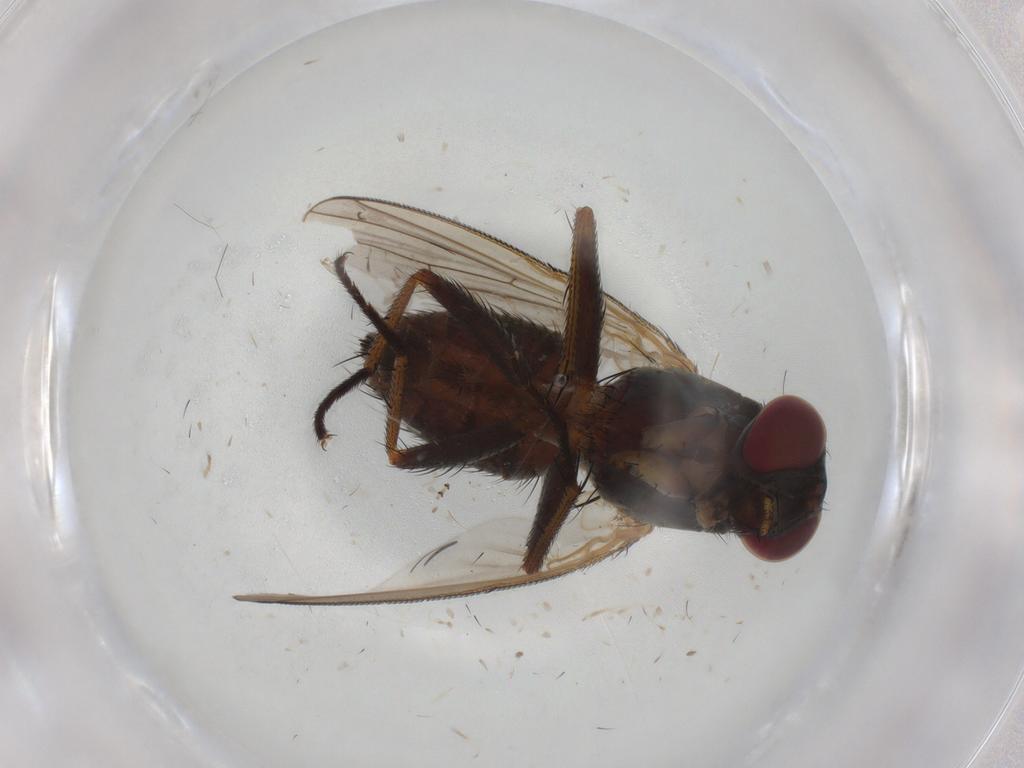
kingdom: Animalia
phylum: Arthropoda
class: Insecta
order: Diptera
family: Muscidae
